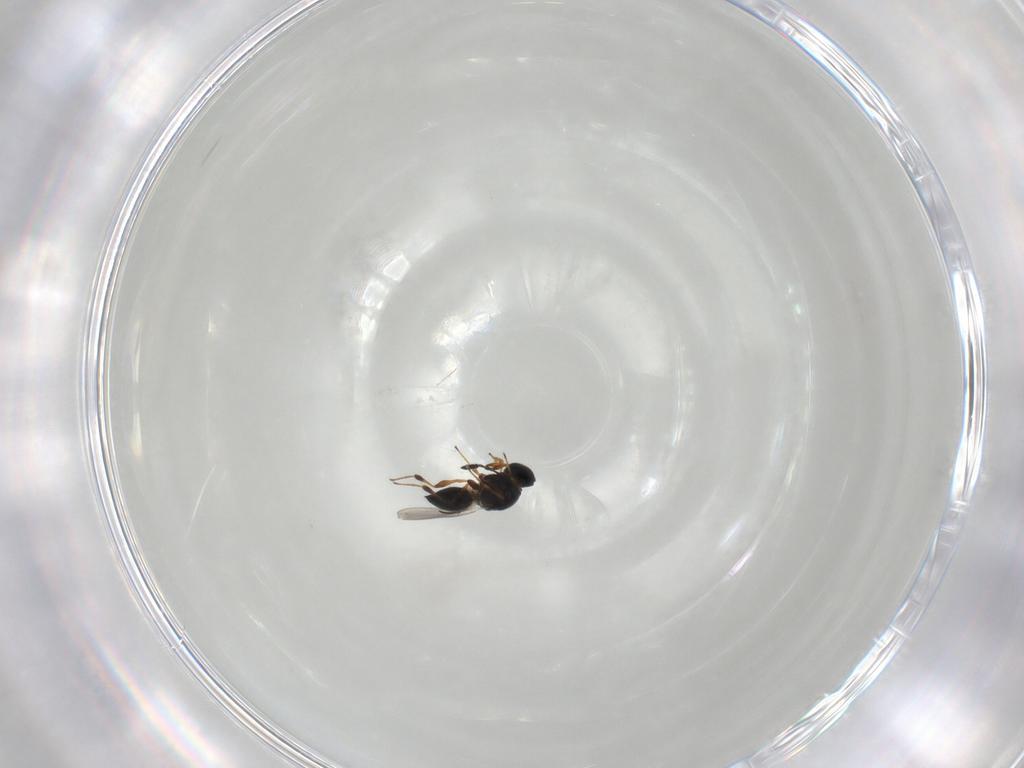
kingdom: Animalia
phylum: Arthropoda
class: Insecta
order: Hymenoptera
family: Platygastridae
